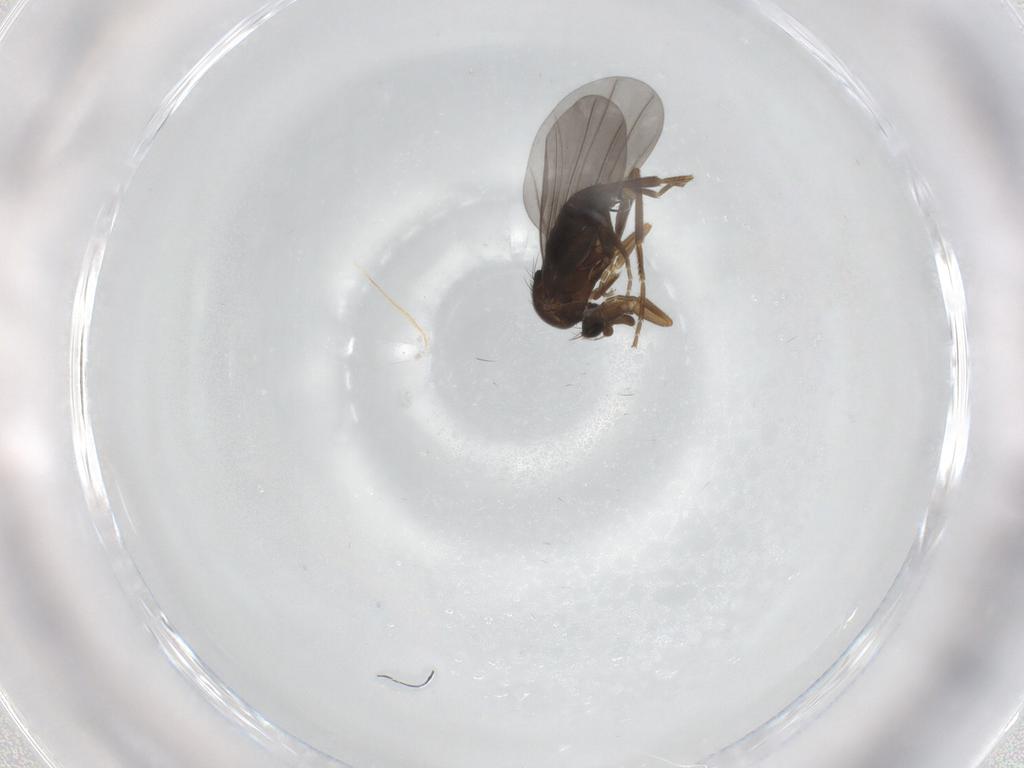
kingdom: Animalia
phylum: Arthropoda
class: Insecta
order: Diptera
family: Phoridae
